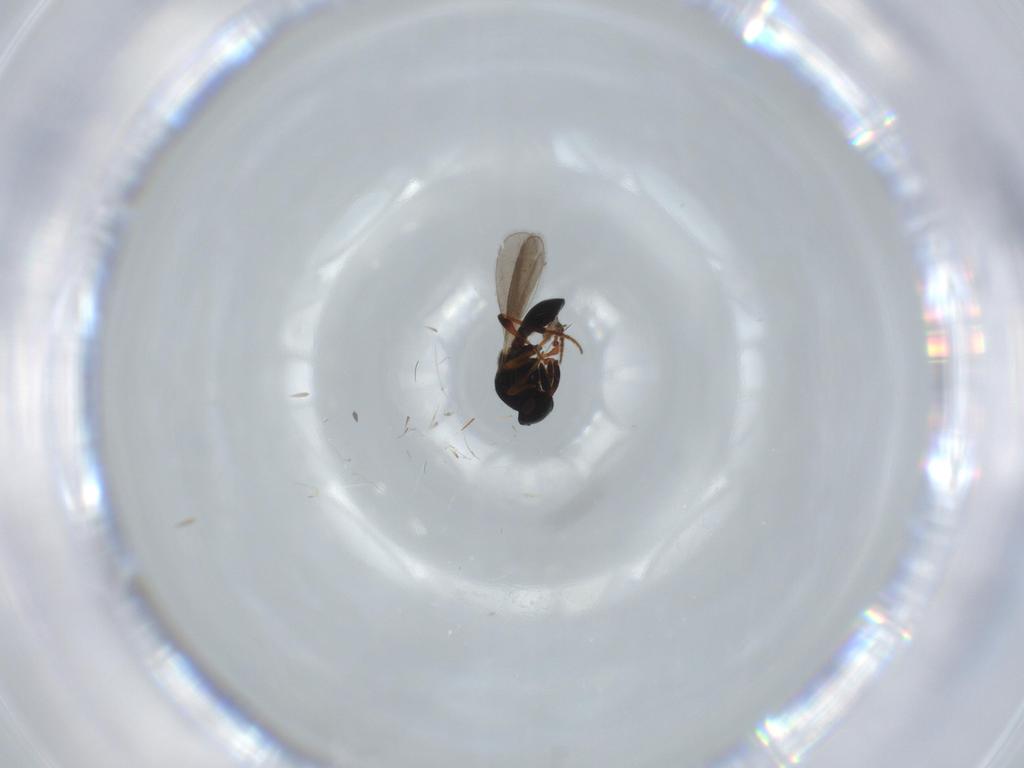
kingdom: Animalia
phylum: Arthropoda
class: Insecta
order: Hymenoptera
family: Platygastridae
